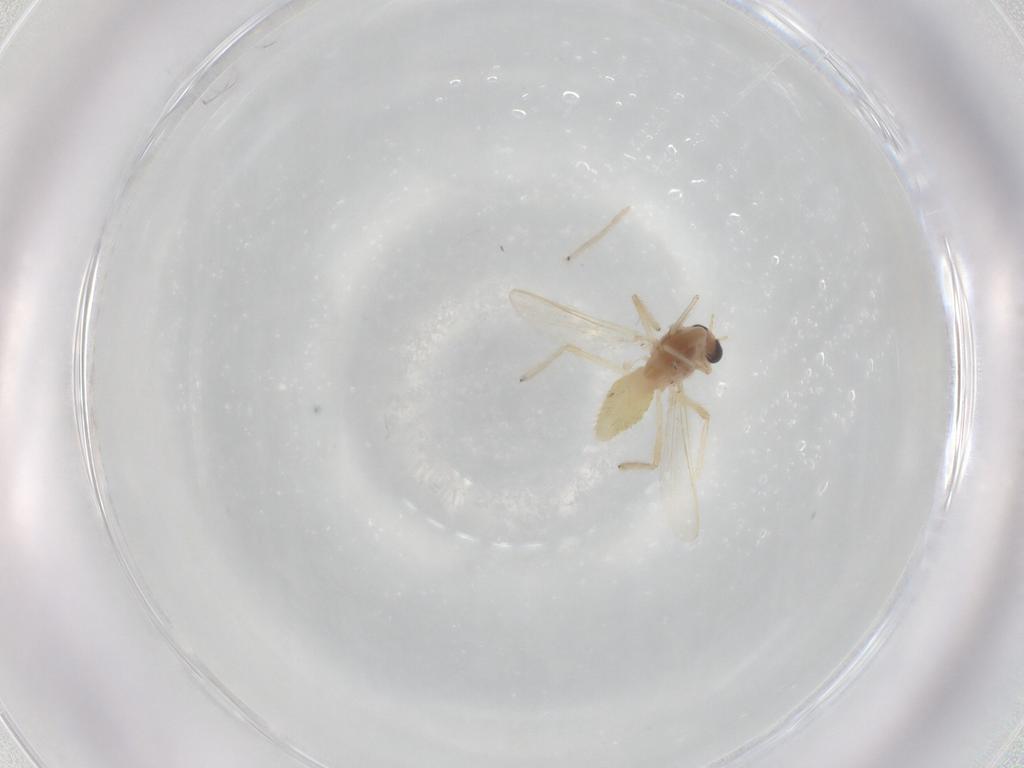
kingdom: Animalia
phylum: Arthropoda
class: Insecta
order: Diptera
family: Chironomidae
